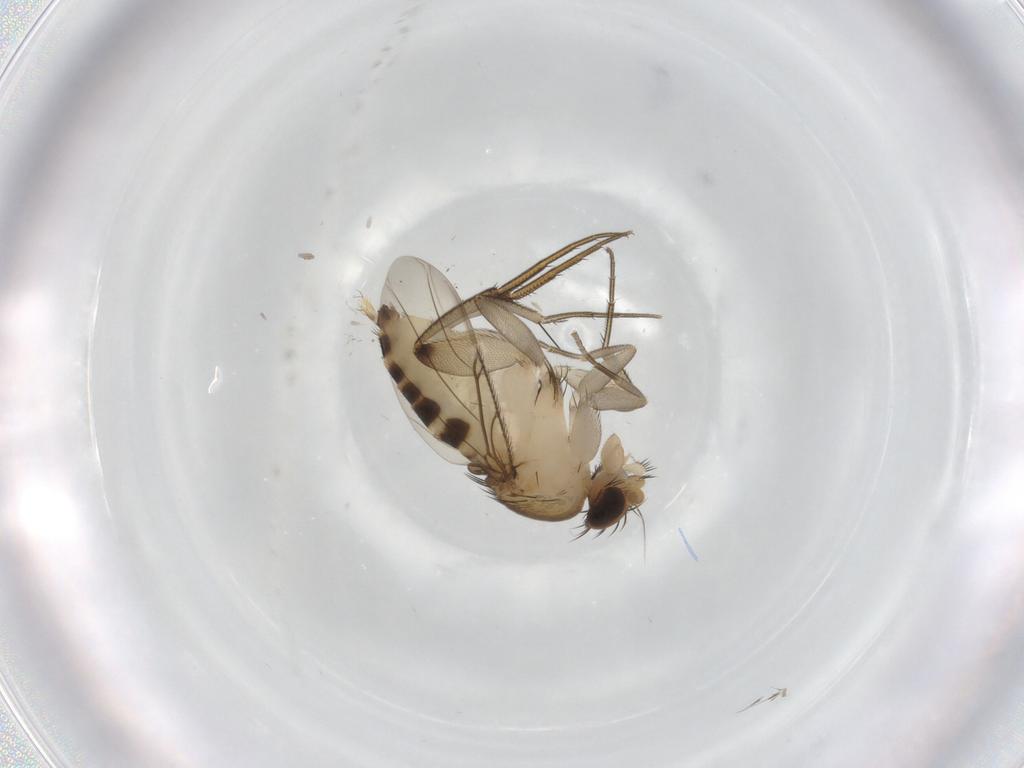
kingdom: Animalia
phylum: Arthropoda
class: Insecta
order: Diptera
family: Phoridae
